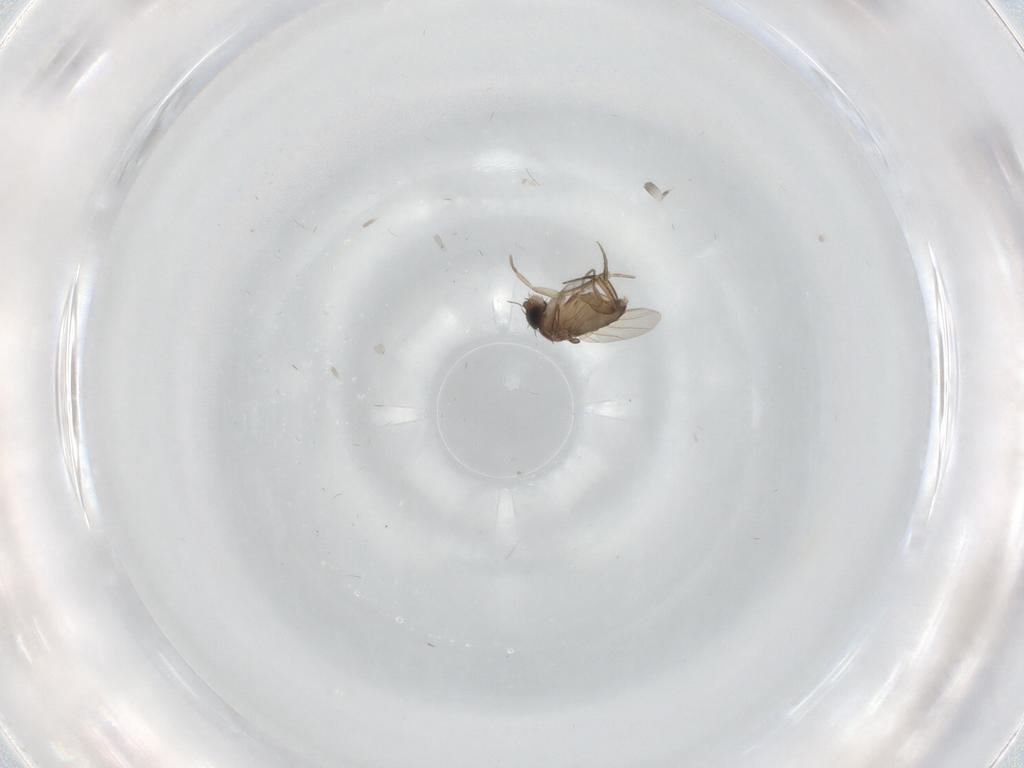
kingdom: Animalia
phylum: Arthropoda
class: Insecta
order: Diptera
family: Phoridae
